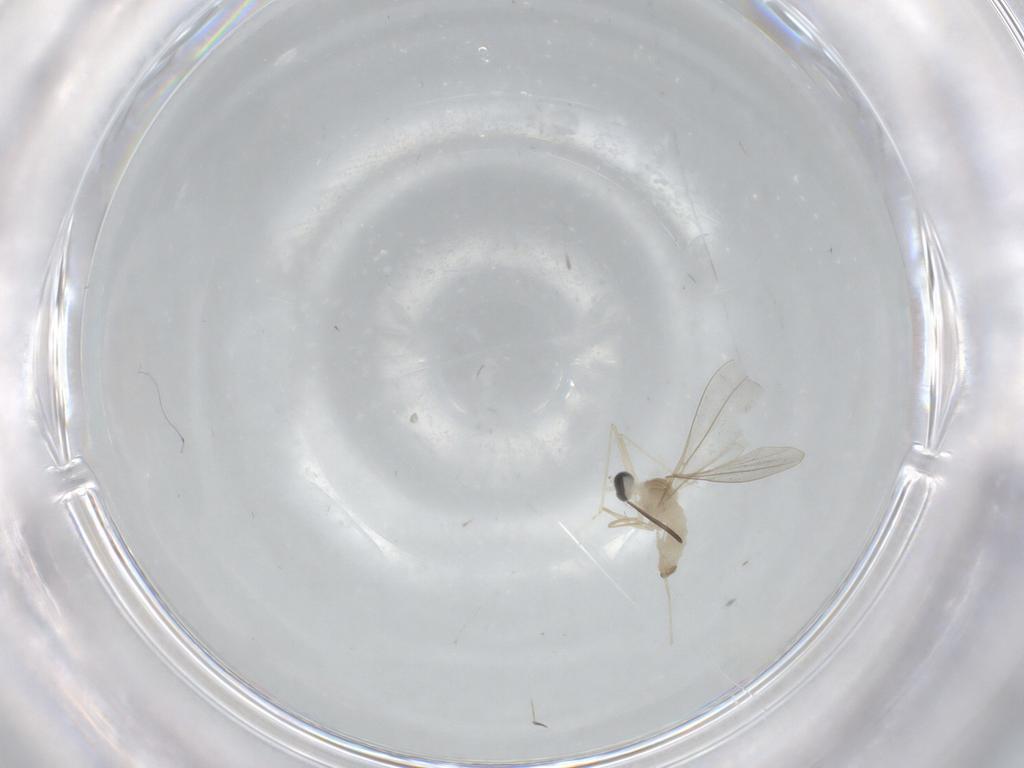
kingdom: Animalia
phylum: Arthropoda
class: Insecta
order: Diptera
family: Cecidomyiidae
